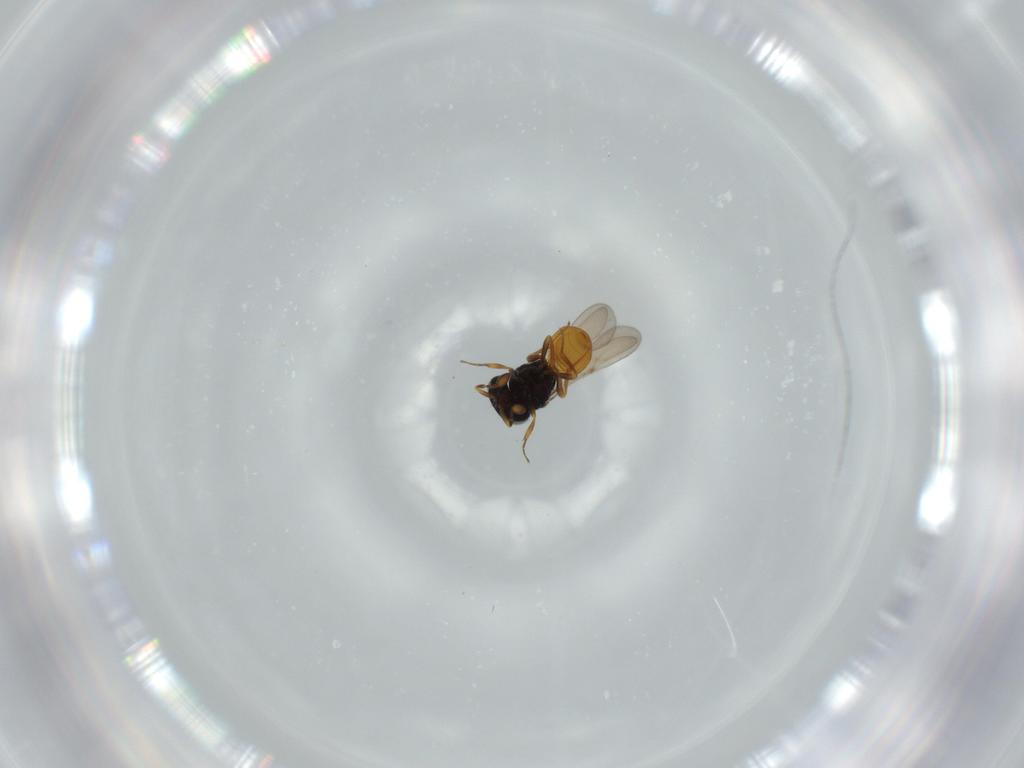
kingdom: Animalia
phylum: Arthropoda
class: Insecta
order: Hymenoptera
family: Scelionidae
